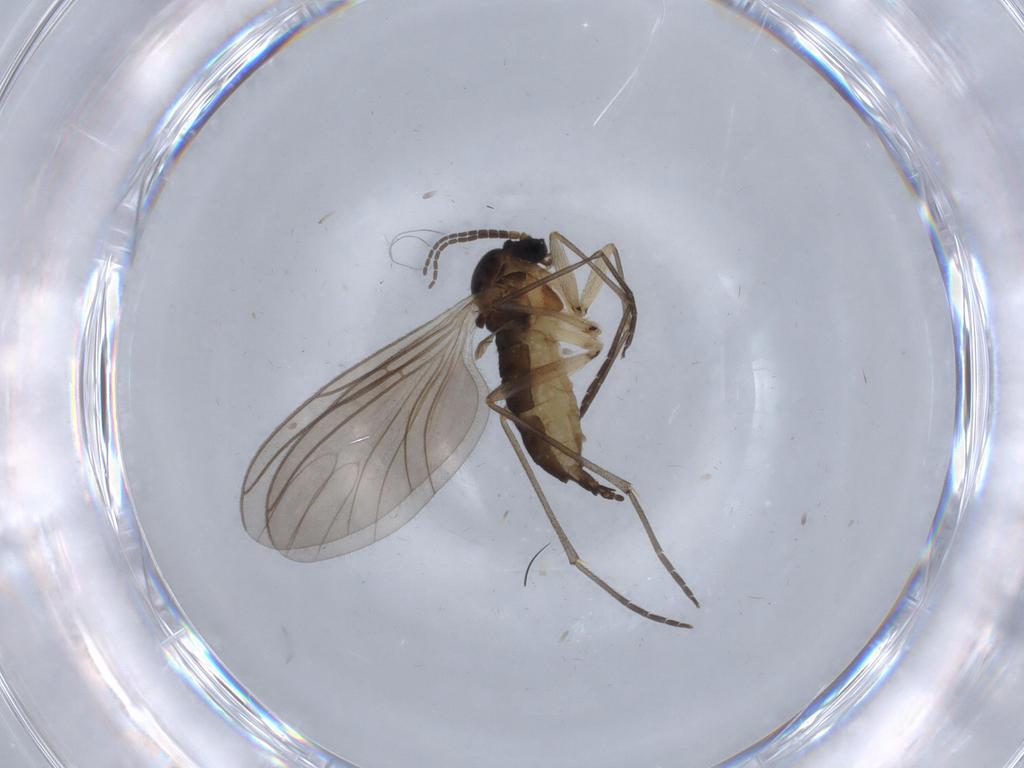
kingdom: Animalia
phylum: Arthropoda
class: Insecta
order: Diptera
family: Sciaridae
